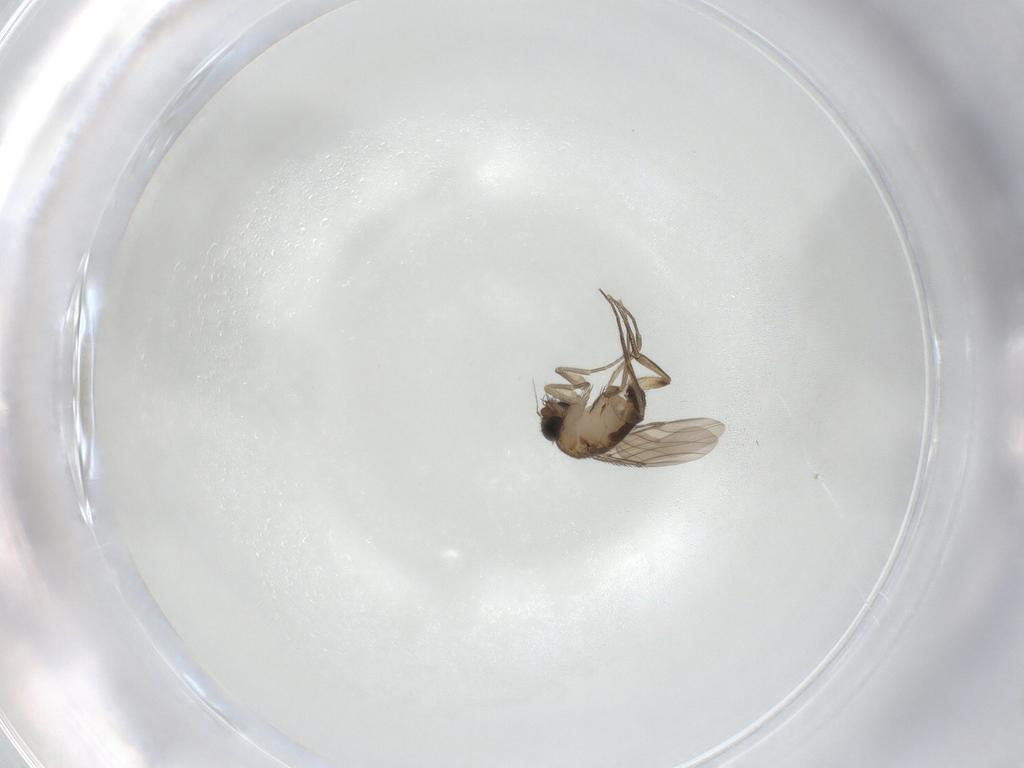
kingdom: Animalia
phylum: Arthropoda
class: Insecta
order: Diptera
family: Phoridae
